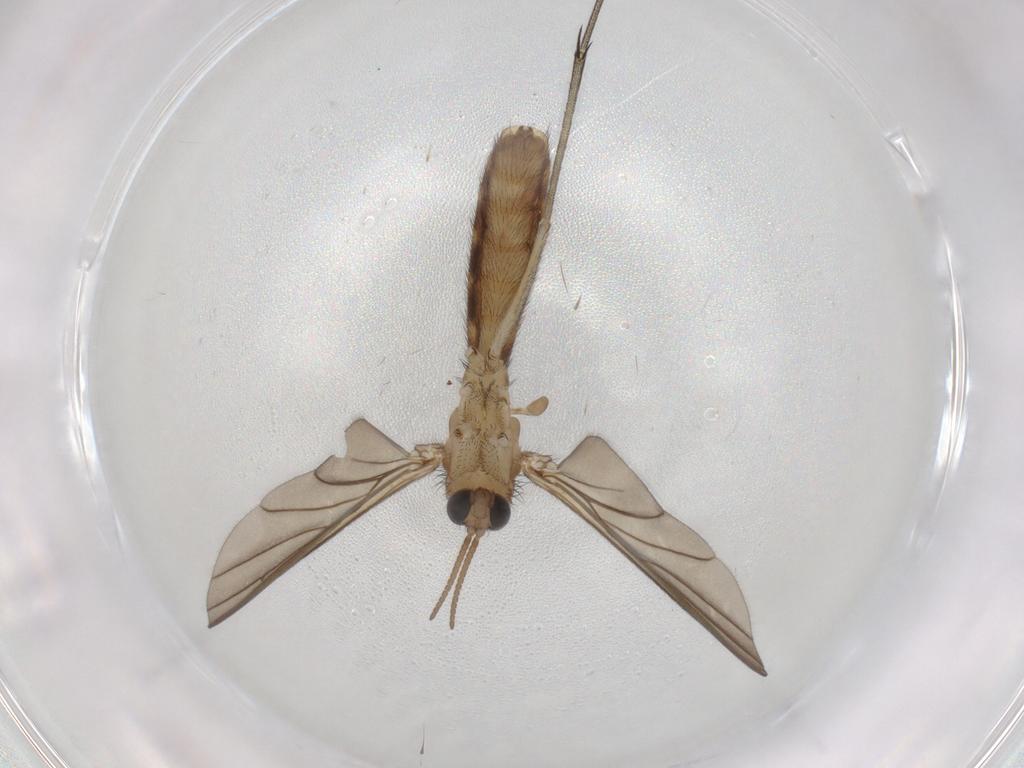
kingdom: Animalia
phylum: Arthropoda
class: Insecta
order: Diptera
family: Keroplatidae
